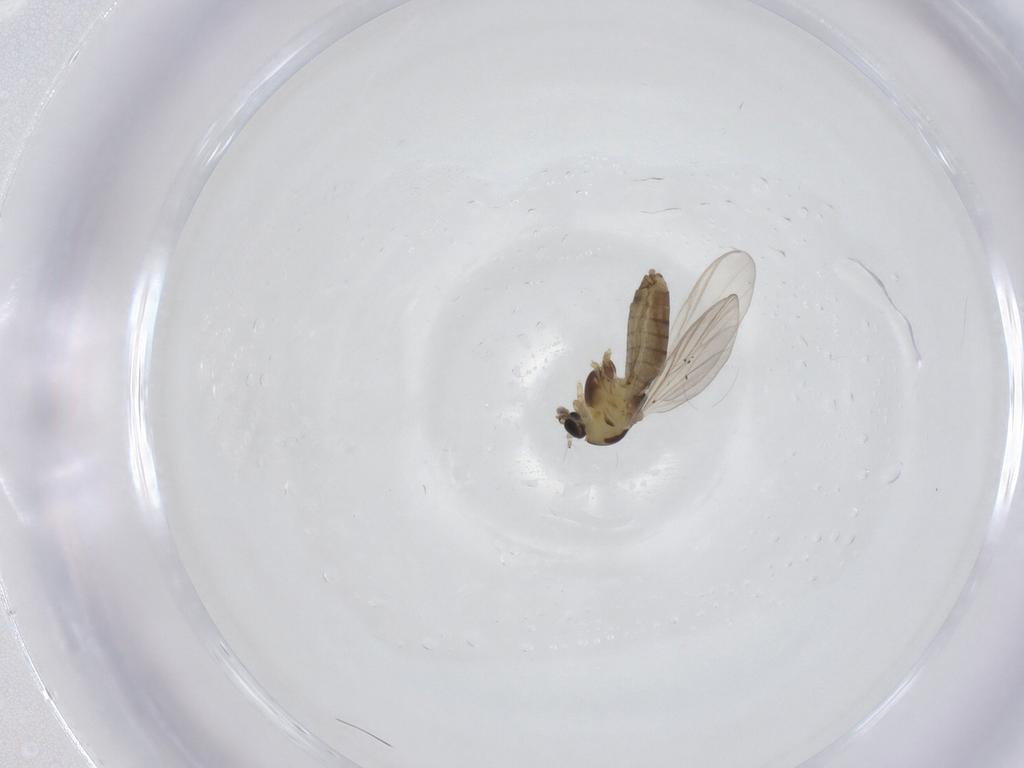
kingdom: Animalia
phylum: Arthropoda
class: Insecta
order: Diptera
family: Chironomidae
